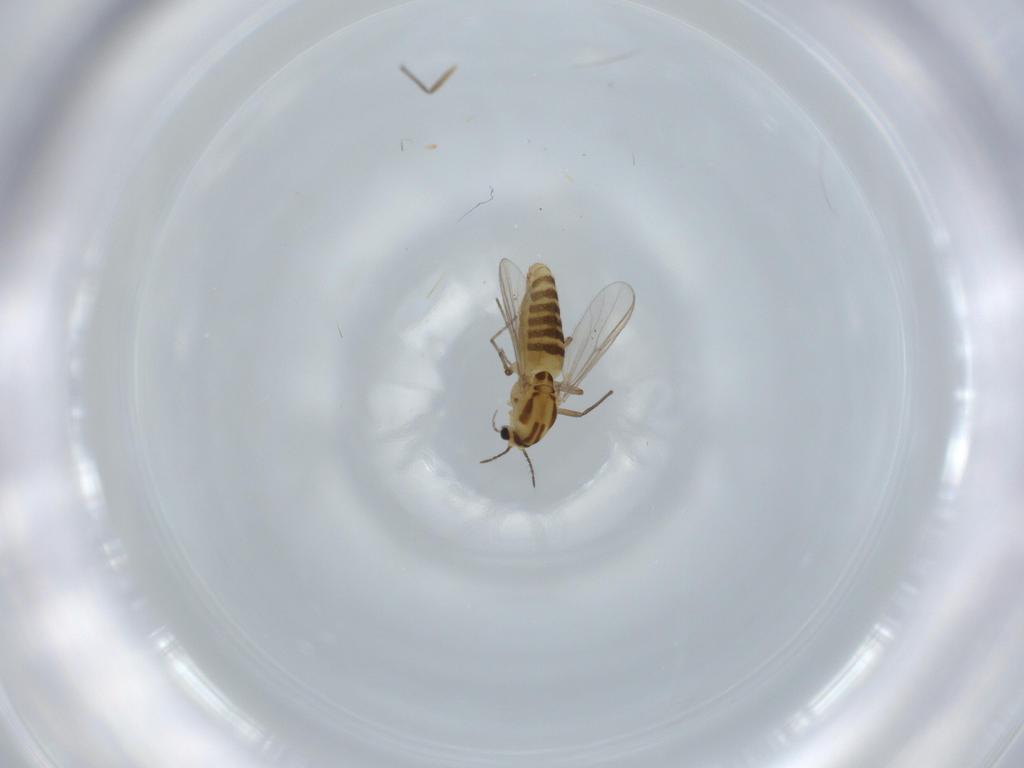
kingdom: Animalia
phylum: Arthropoda
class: Insecta
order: Diptera
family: Chironomidae
